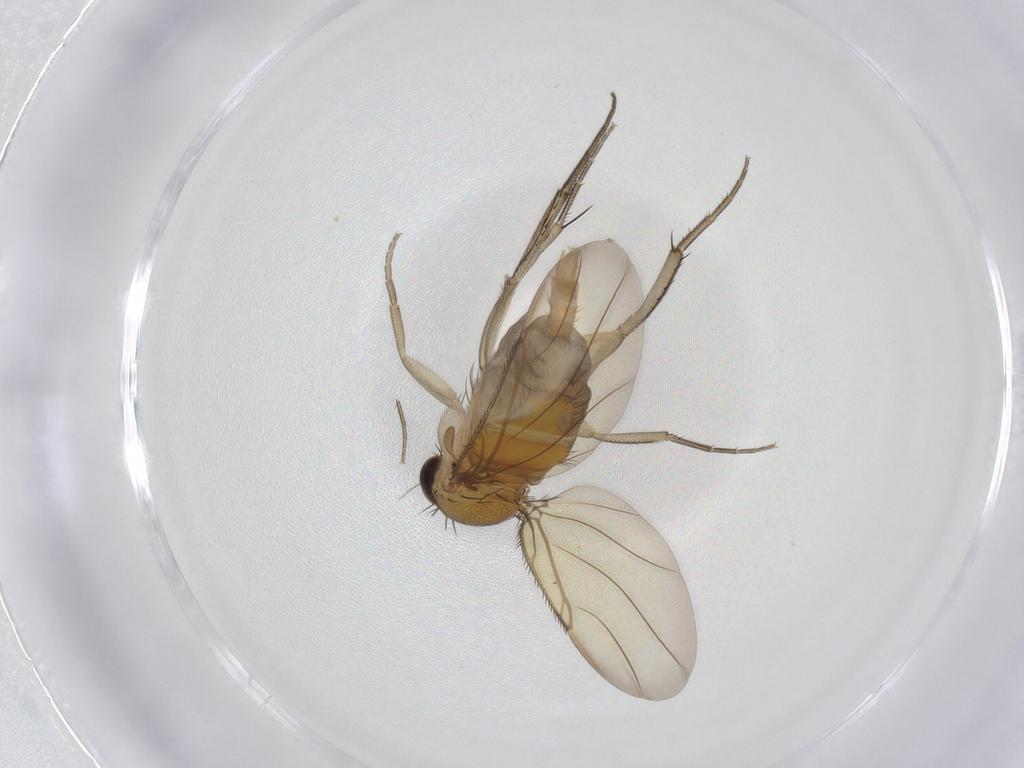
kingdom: Animalia
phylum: Arthropoda
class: Insecta
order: Diptera
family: Phoridae
